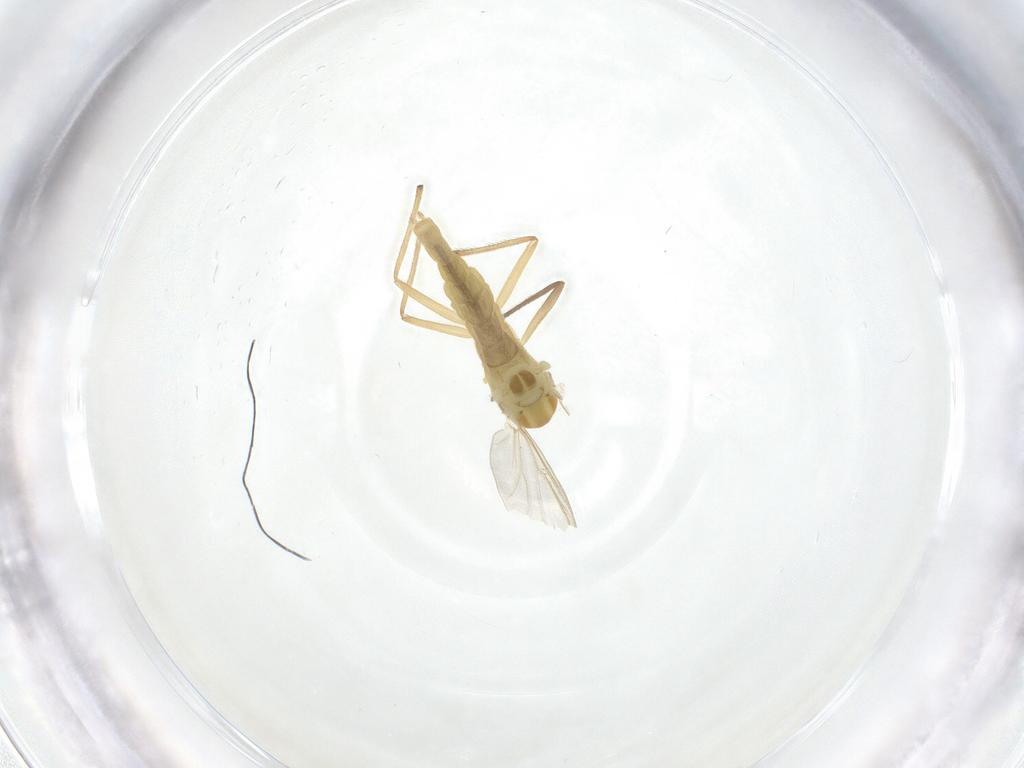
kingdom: Animalia
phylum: Arthropoda
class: Insecta
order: Diptera
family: Chironomidae
